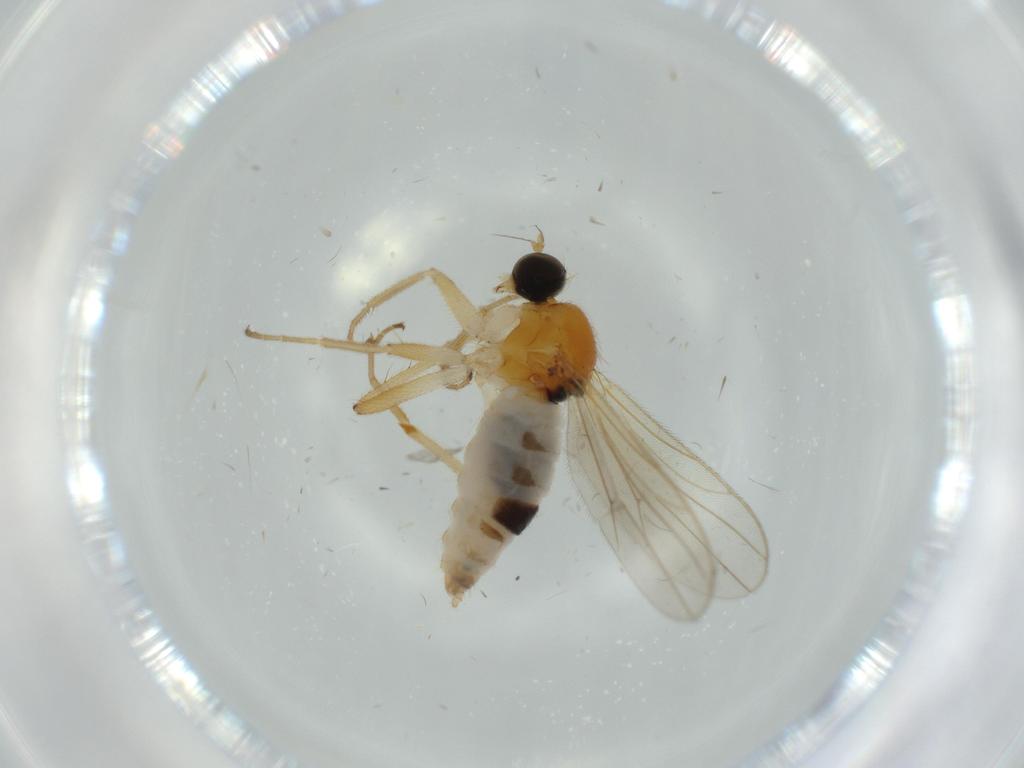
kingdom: Animalia
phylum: Arthropoda
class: Insecta
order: Diptera
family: Hybotidae
